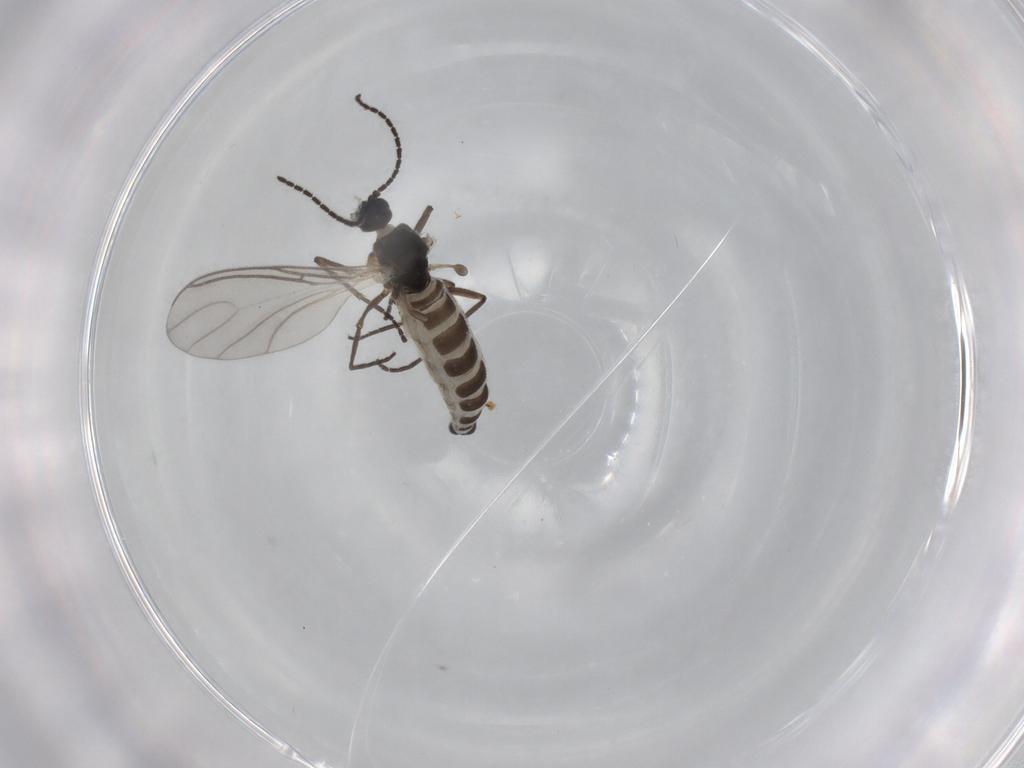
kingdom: Animalia
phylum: Arthropoda
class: Insecta
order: Diptera
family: Sciaridae
